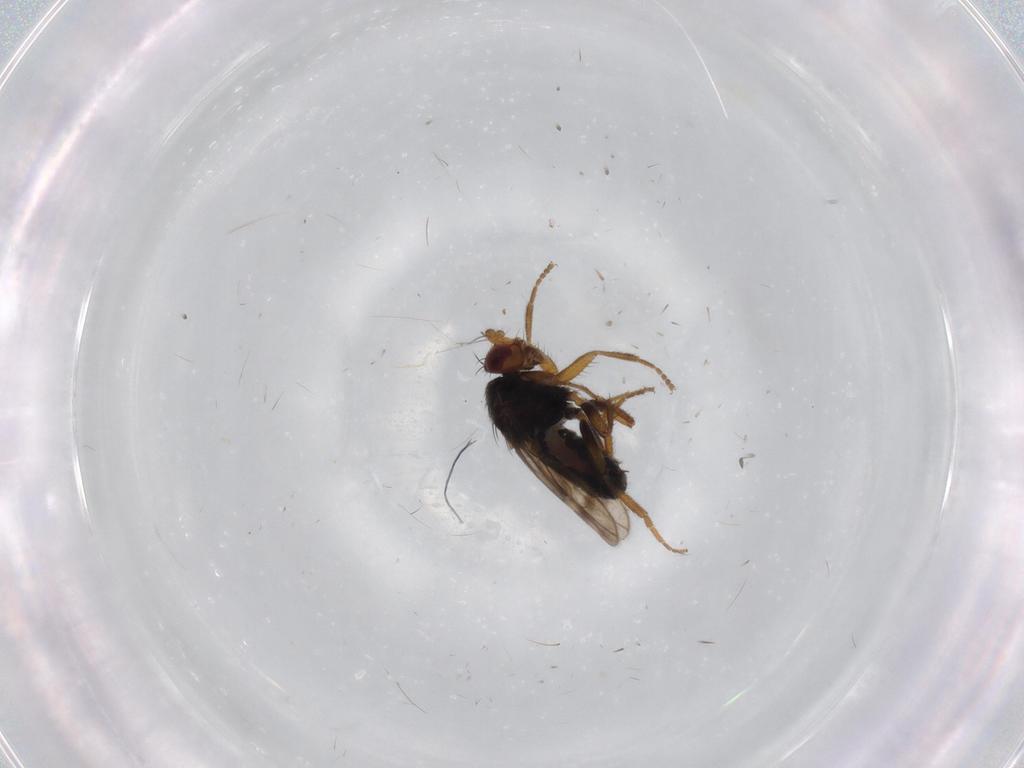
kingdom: Animalia
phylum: Arthropoda
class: Insecta
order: Diptera
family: Sphaeroceridae
